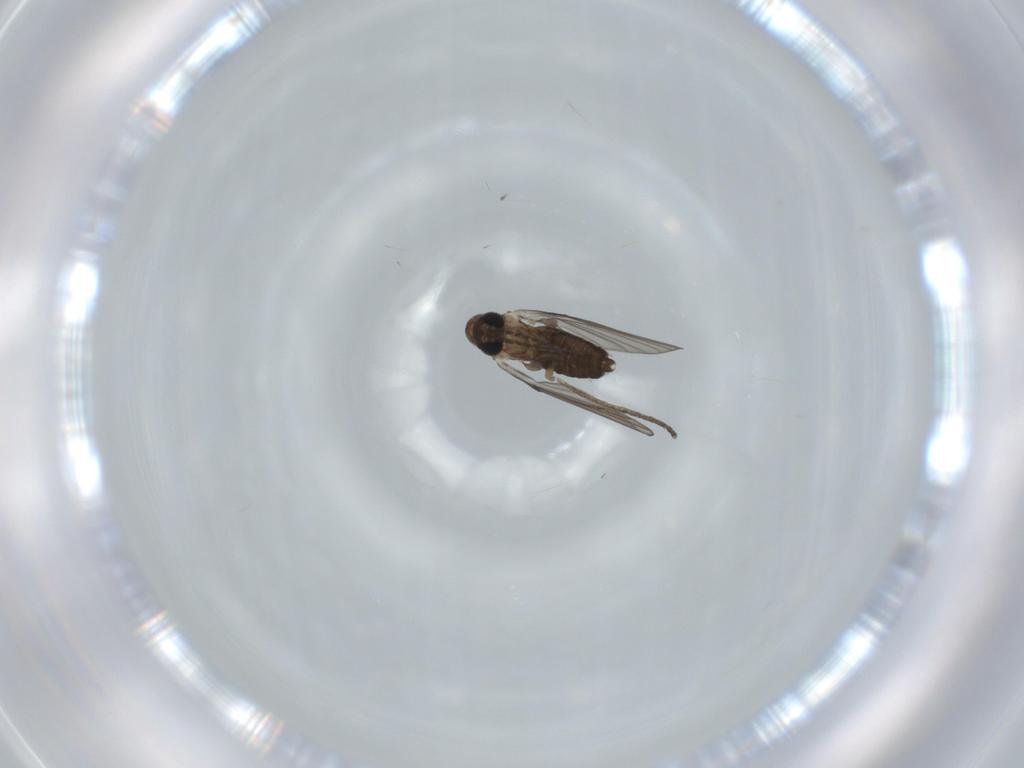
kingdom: Animalia
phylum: Arthropoda
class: Insecta
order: Diptera
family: Psychodidae
